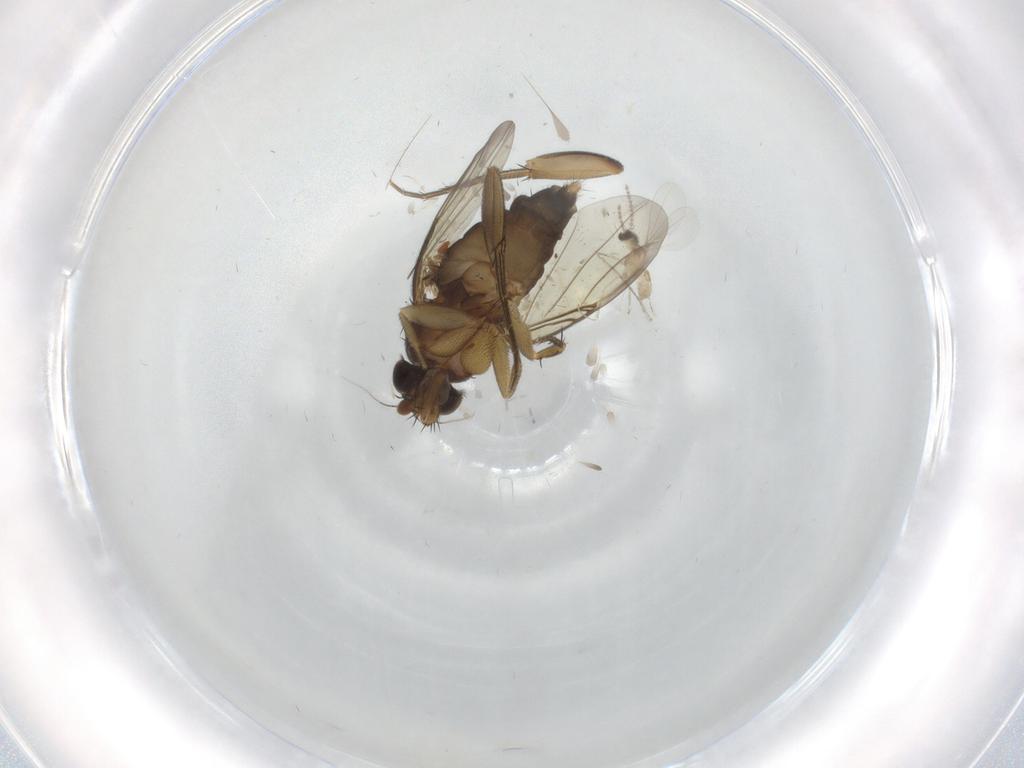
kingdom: Animalia
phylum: Arthropoda
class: Insecta
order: Diptera
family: Phoridae
